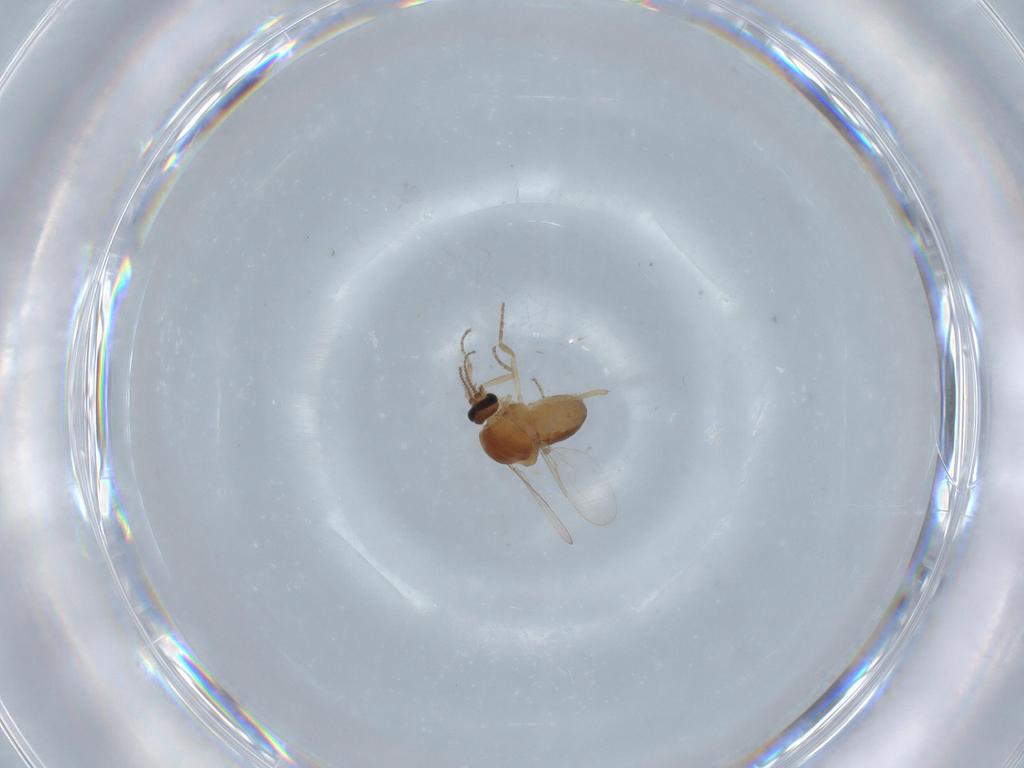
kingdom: Animalia
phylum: Arthropoda
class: Insecta
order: Diptera
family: Ceratopogonidae
